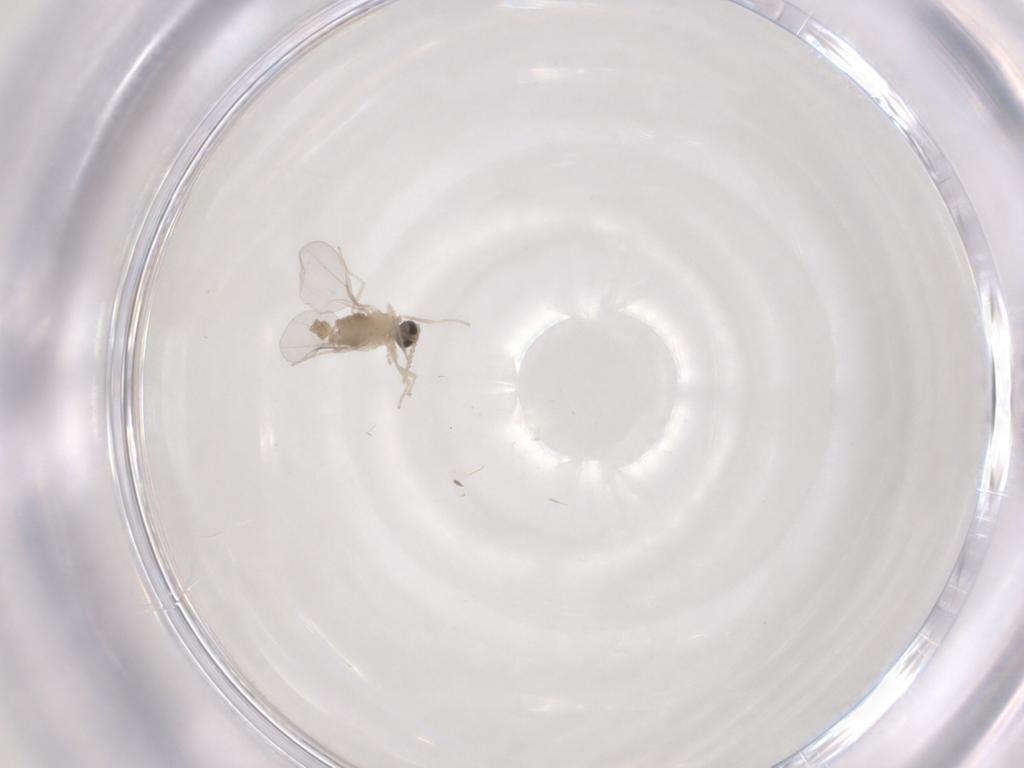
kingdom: Animalia
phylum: Arthropoda
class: Insecta
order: Diptera
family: Cecidomyiidae
